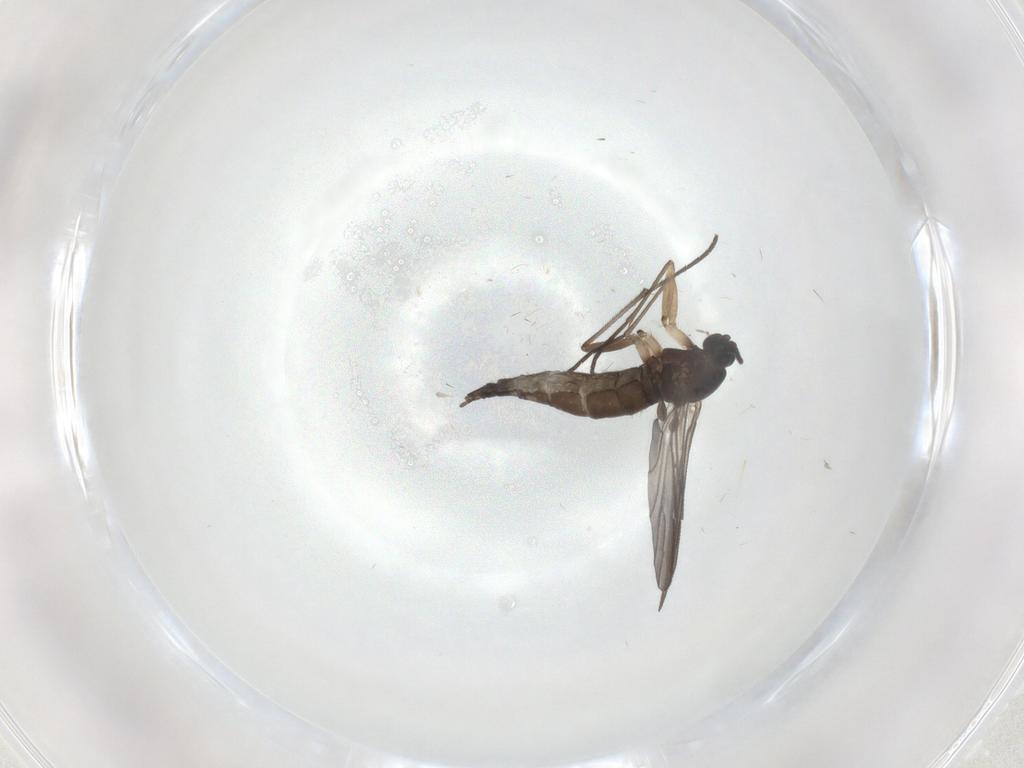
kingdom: Animalia
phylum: Arthropoda
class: Insecta
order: Diptera
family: Sciaridae
